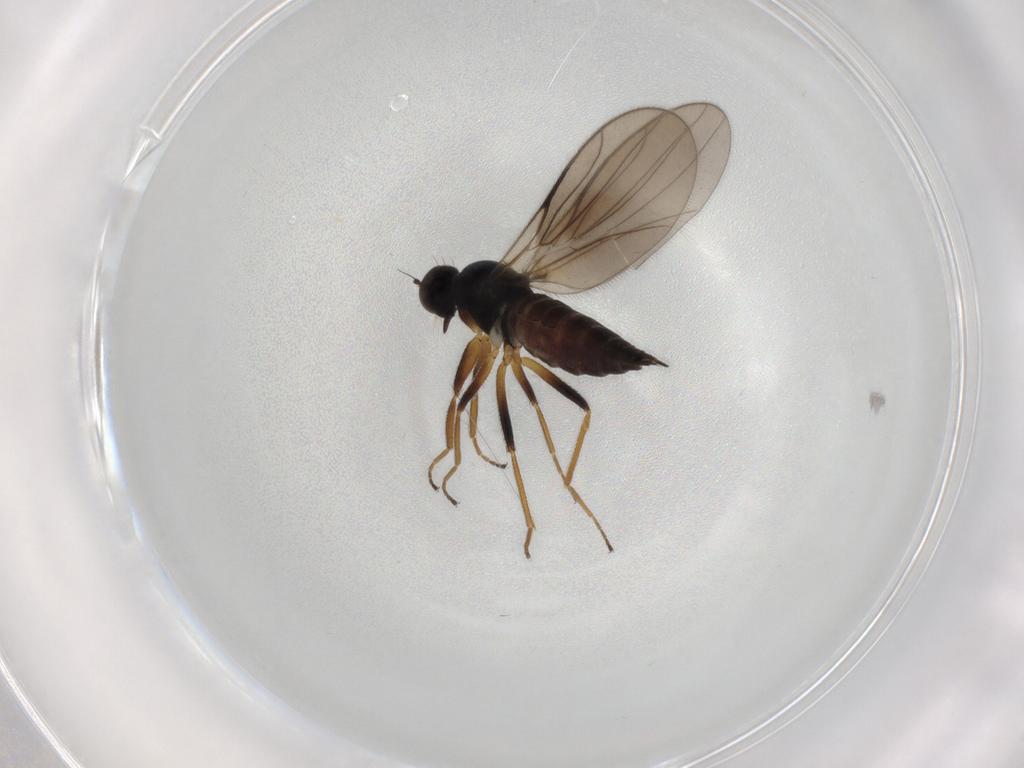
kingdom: Animalia
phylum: Arthropoda
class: Insecta
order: Diptera
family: Hybotidae
